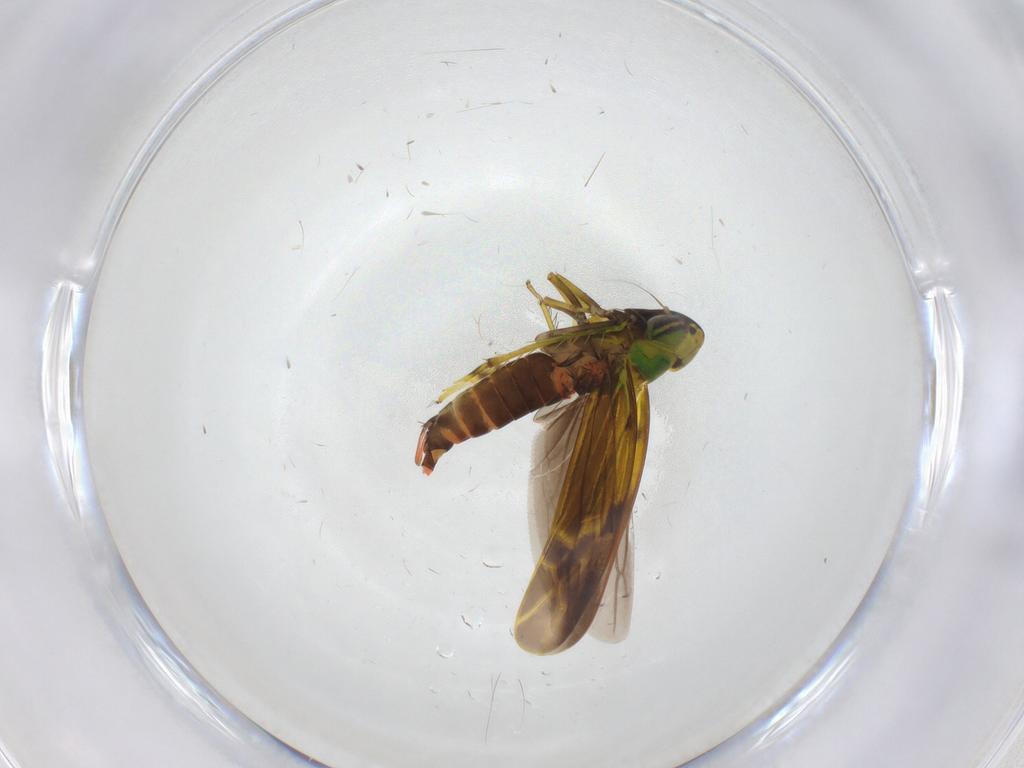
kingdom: Animalia
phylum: Arthropoda
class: Insecta
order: Hemiptera
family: Cicadellidae
